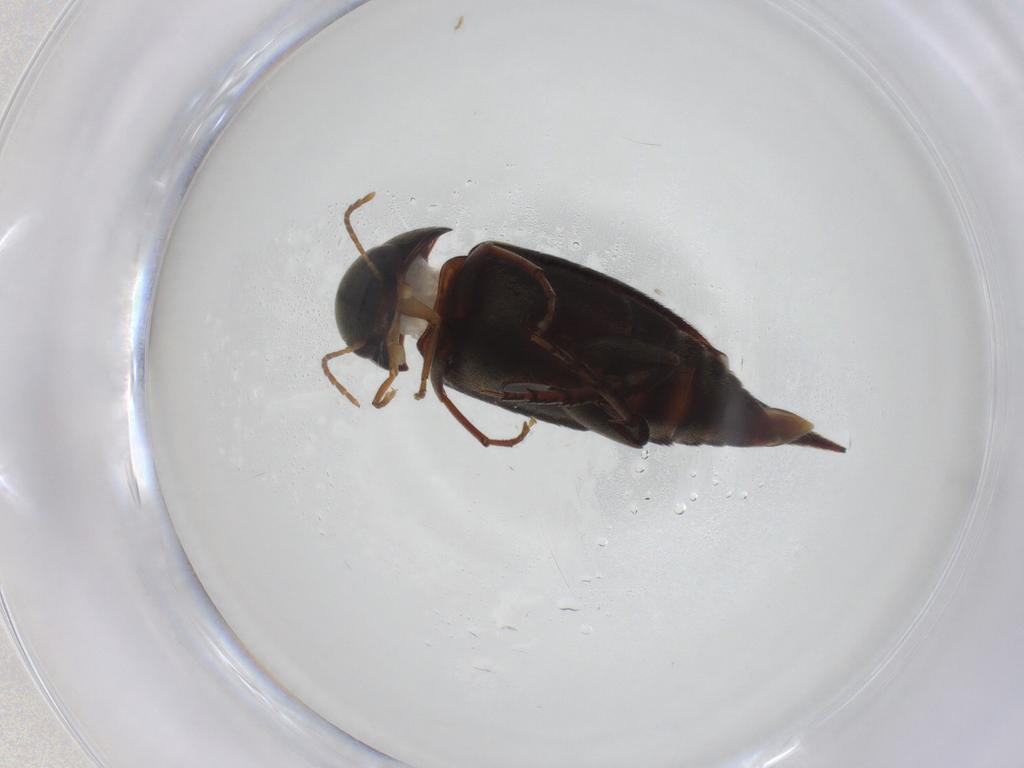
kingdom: Animalia
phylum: Arthropoda
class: Insecta
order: Coleoptera
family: Mordellidae
